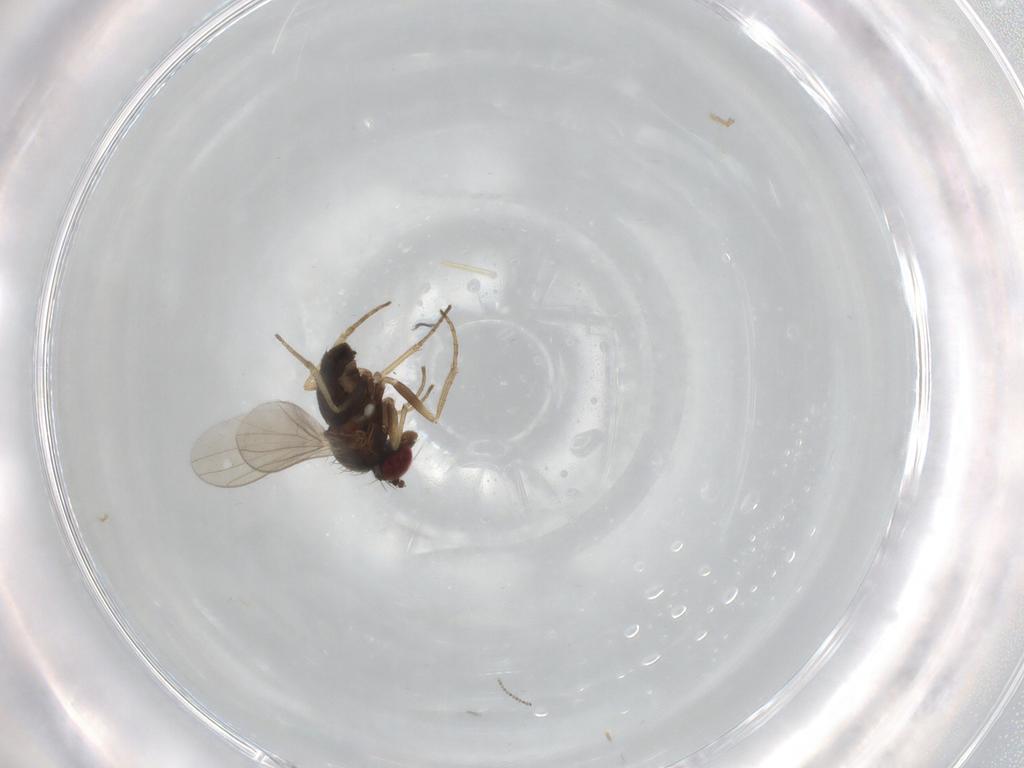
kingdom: Animalia
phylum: Arthropoda
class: Insecta
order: Diptera
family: Dolichopodidae
